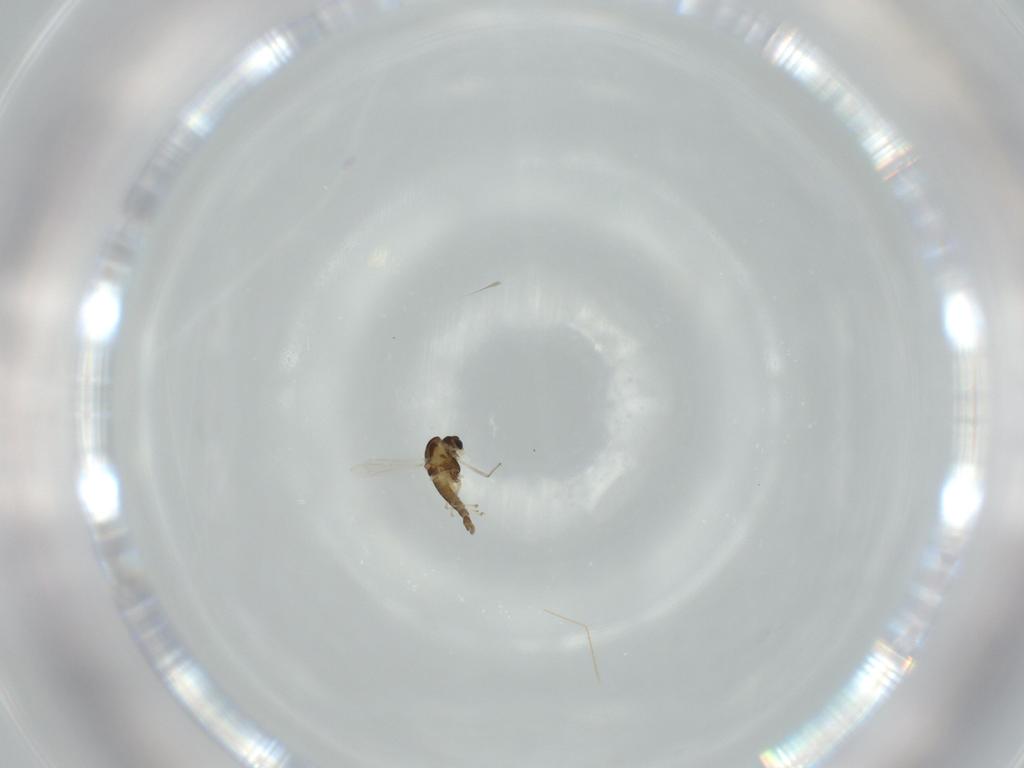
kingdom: Animalia
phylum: Arthropoda
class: Insecta
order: Diptera
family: Chironomidae
